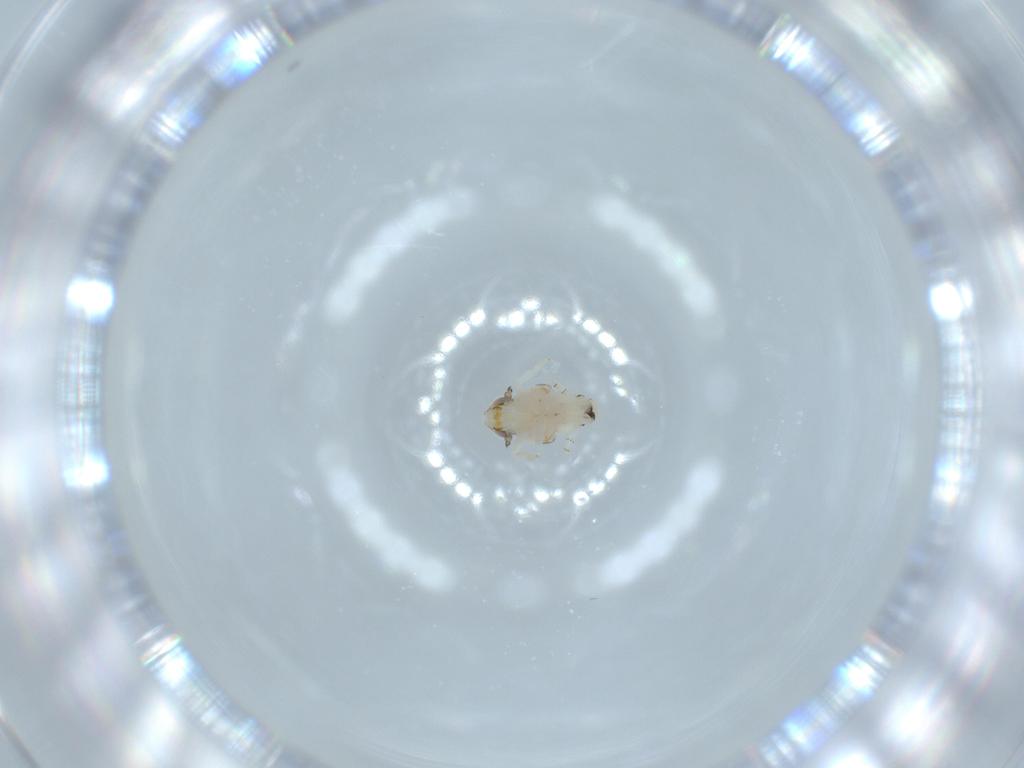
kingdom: Animalia
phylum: Arthropoda
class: Insecta
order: Hemiptera
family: Nogodinidae
